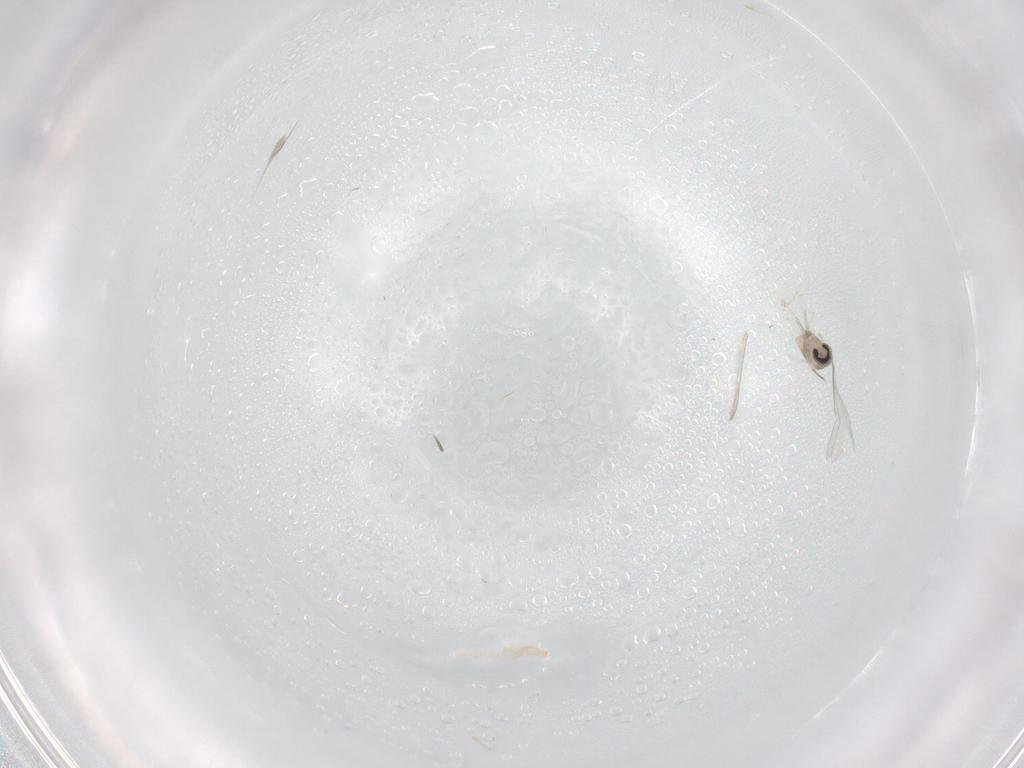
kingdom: Animalia
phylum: Arthropoda
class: Insecta
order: Diptera
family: Cecidomyiidae
